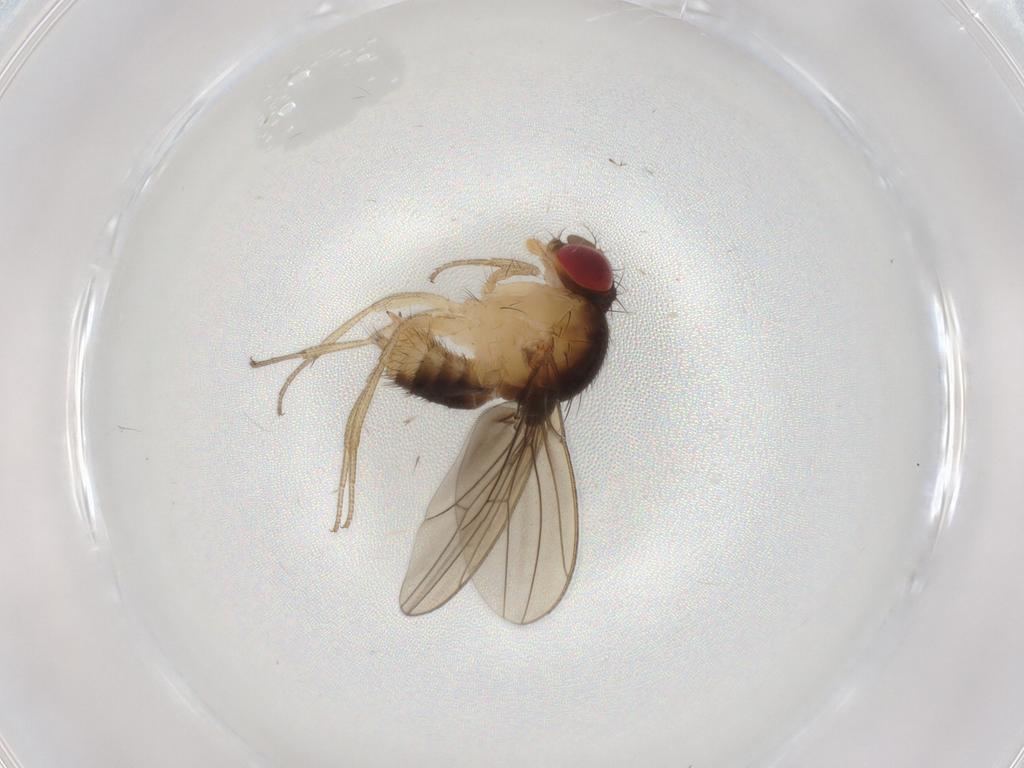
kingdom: Animalia
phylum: Arthropoda
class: Insecta
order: Diptera
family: Drosophilidae
